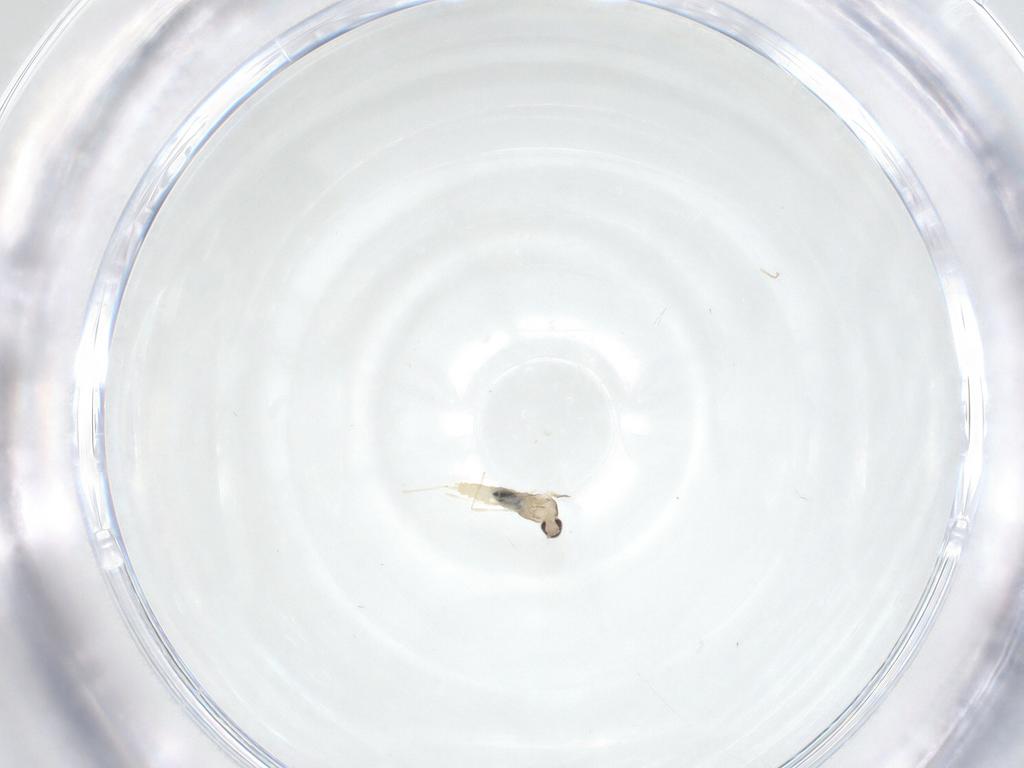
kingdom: Animalia
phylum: Arthropoda
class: Insecta
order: Diptera
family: Cecidomyiidae
